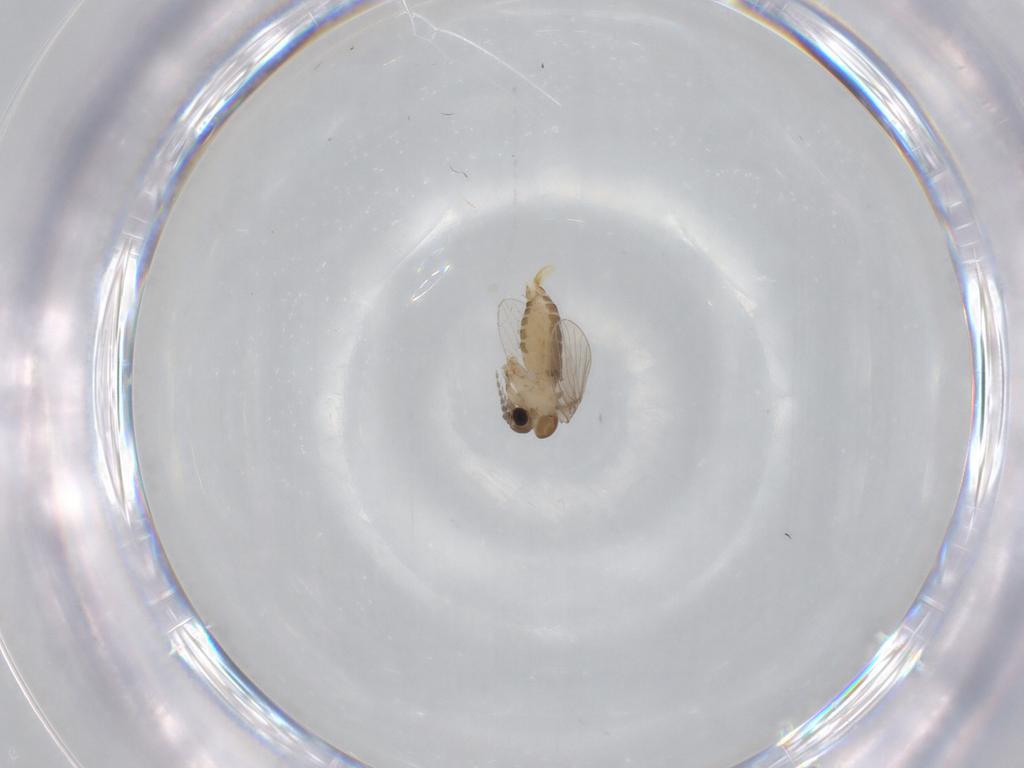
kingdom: Animalia
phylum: Arthropoda
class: Insecta
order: Diptera
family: Psychodidae
